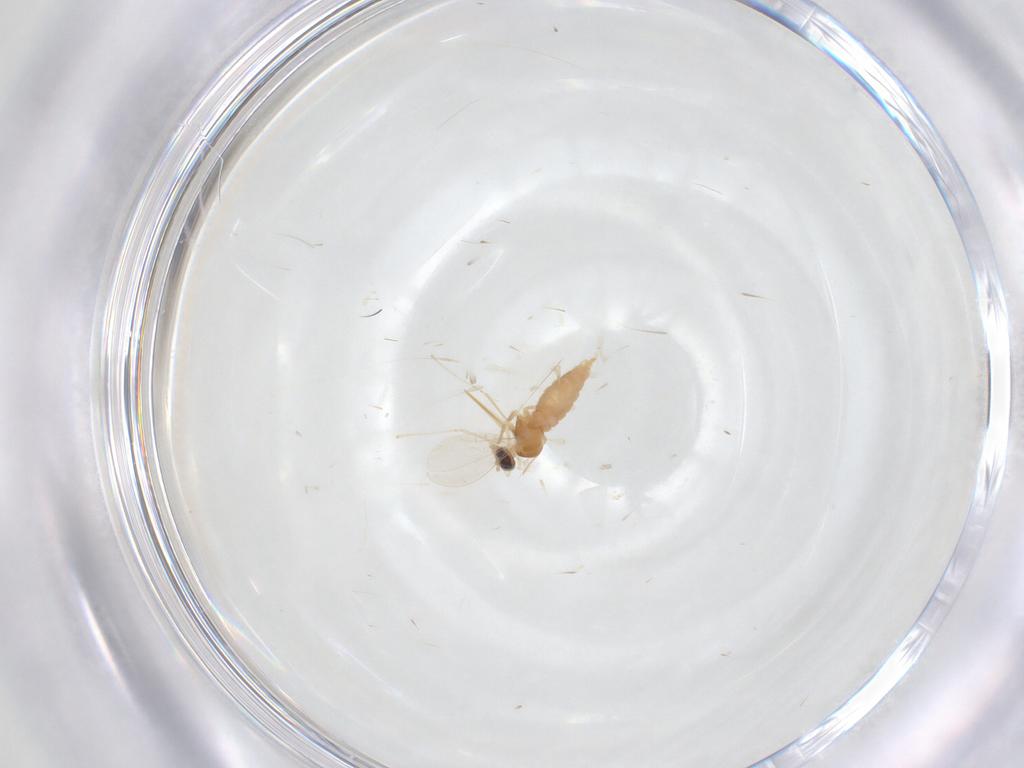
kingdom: Animalia
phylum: Arthropoda
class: Insecta
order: Diptera
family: Cecidomyiidae
